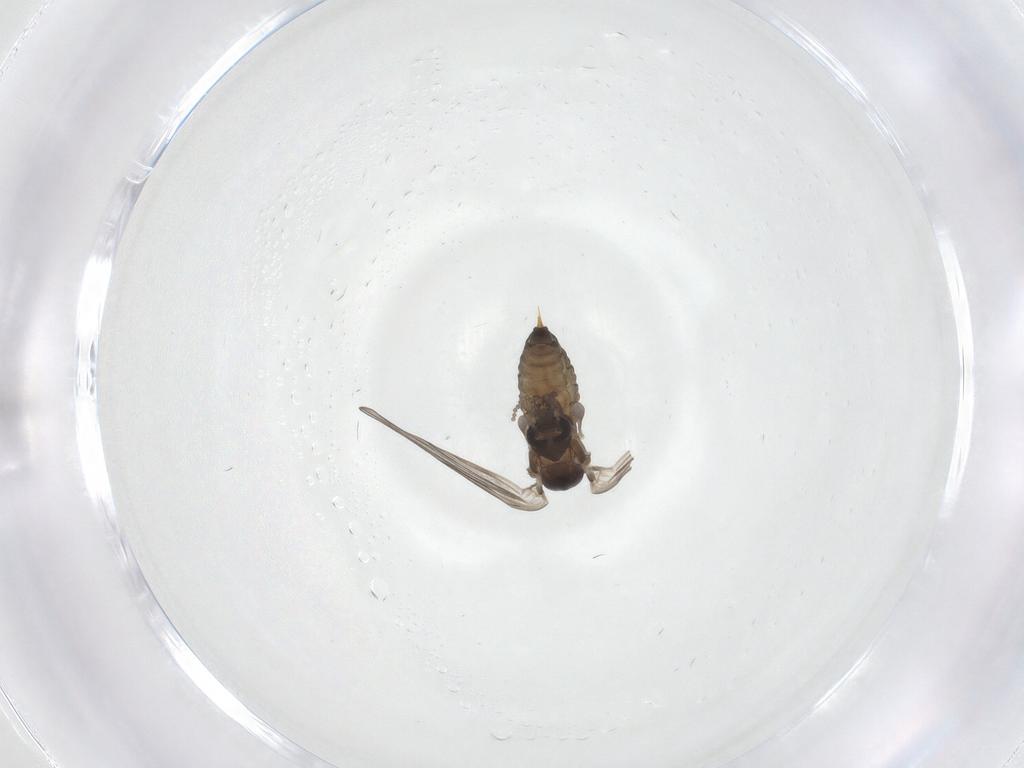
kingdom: Animalia
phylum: Arthropoda
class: Insecta
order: Diptera
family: Psychodidae
